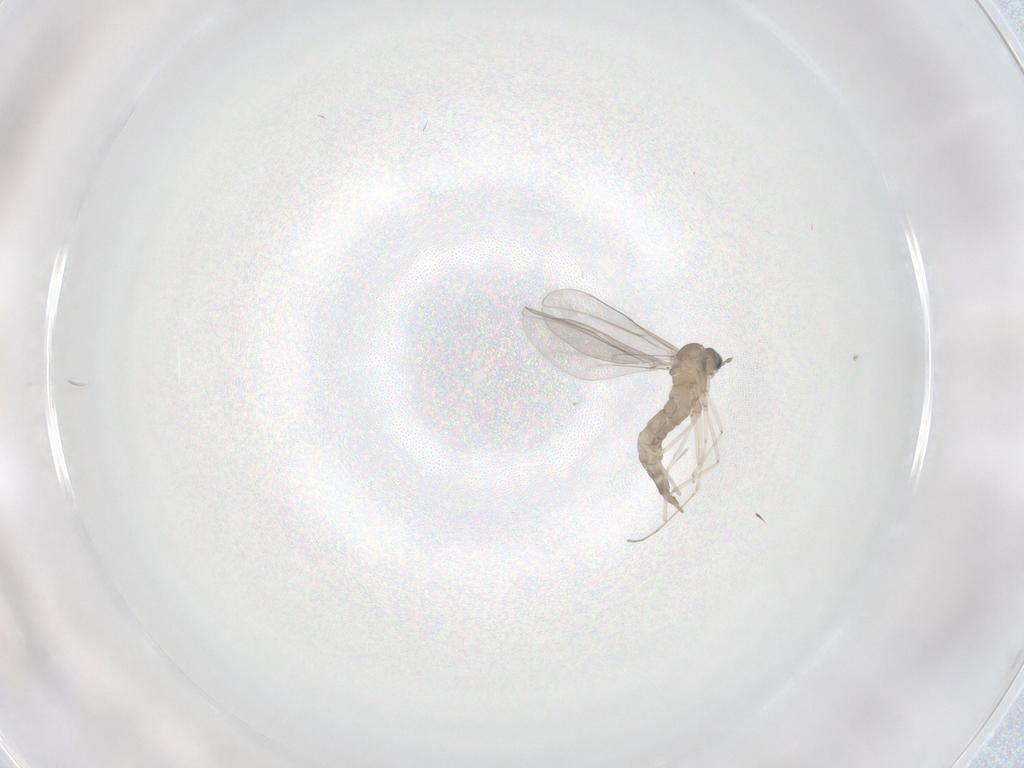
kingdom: Animalia
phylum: Arthropoda
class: Insecta
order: Diptera
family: Cecidomyiidae
